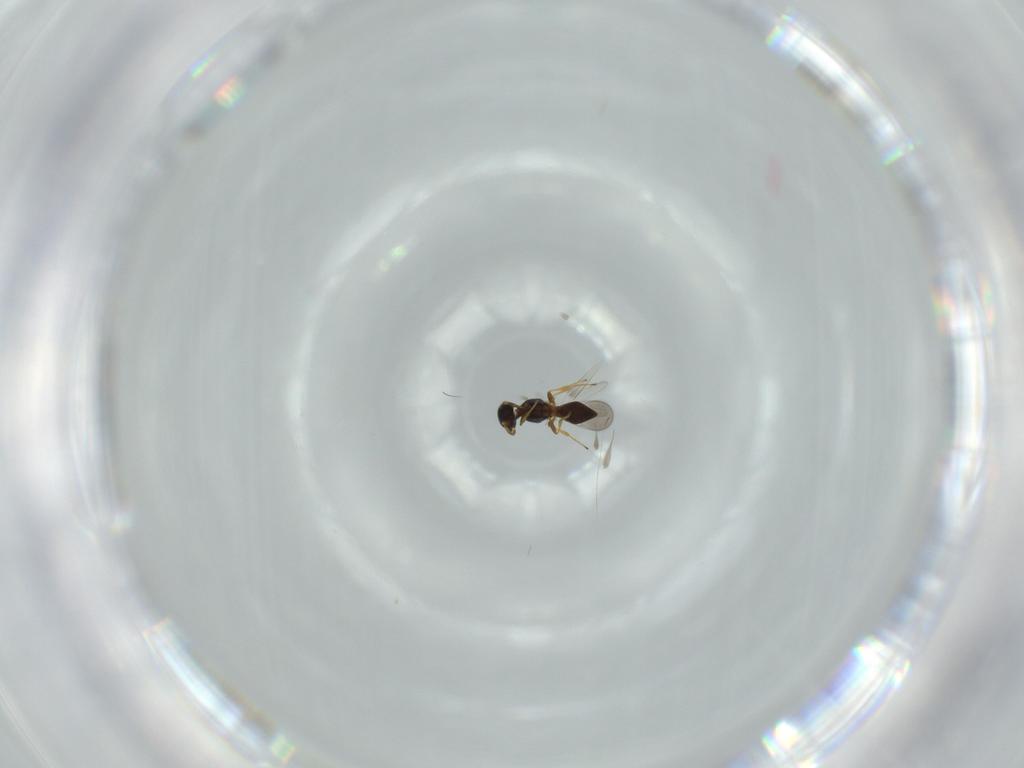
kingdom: Animalia
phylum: Arthropoda
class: Insecta
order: Hymenoptera
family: Platygastridae
